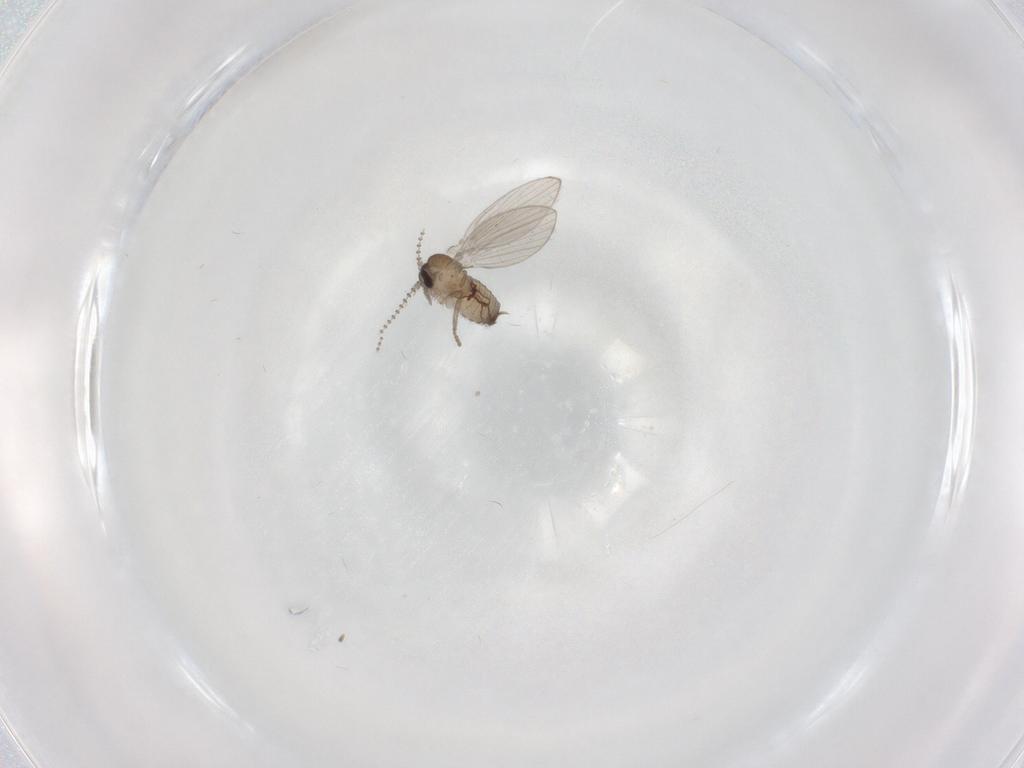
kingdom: Animalia
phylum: Arthropoda
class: Insecta
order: Diptera
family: Psychodidae
